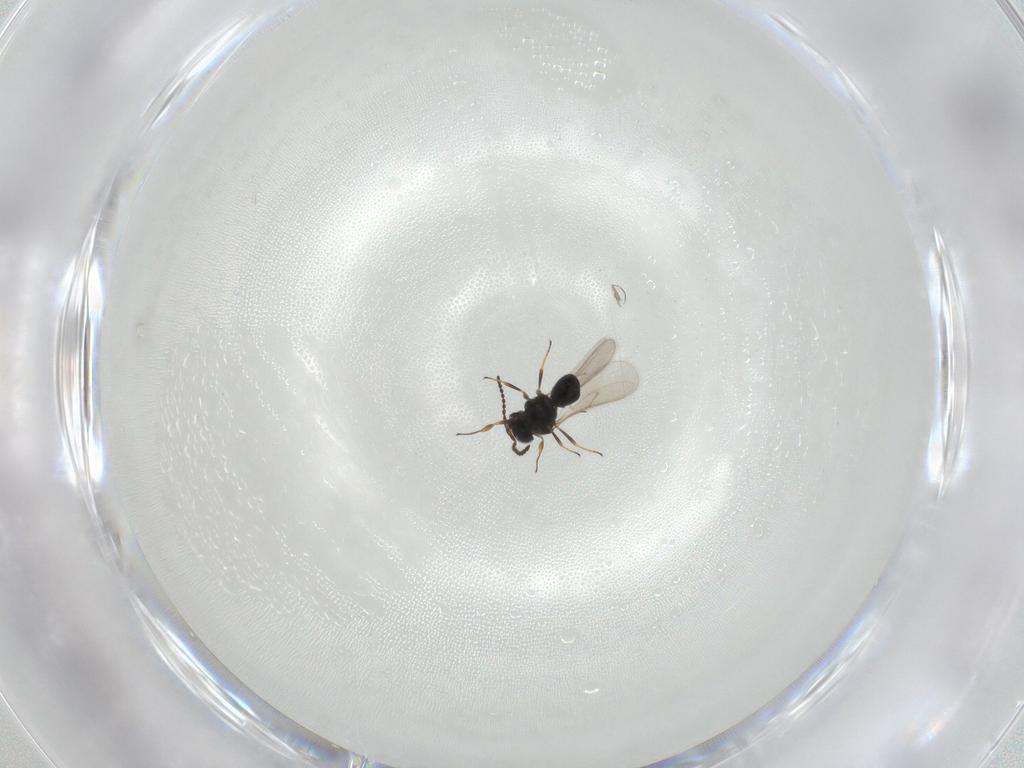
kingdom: Animalia
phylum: Arthropoda
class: Insecta
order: Hymenoptera
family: Scelionidae
